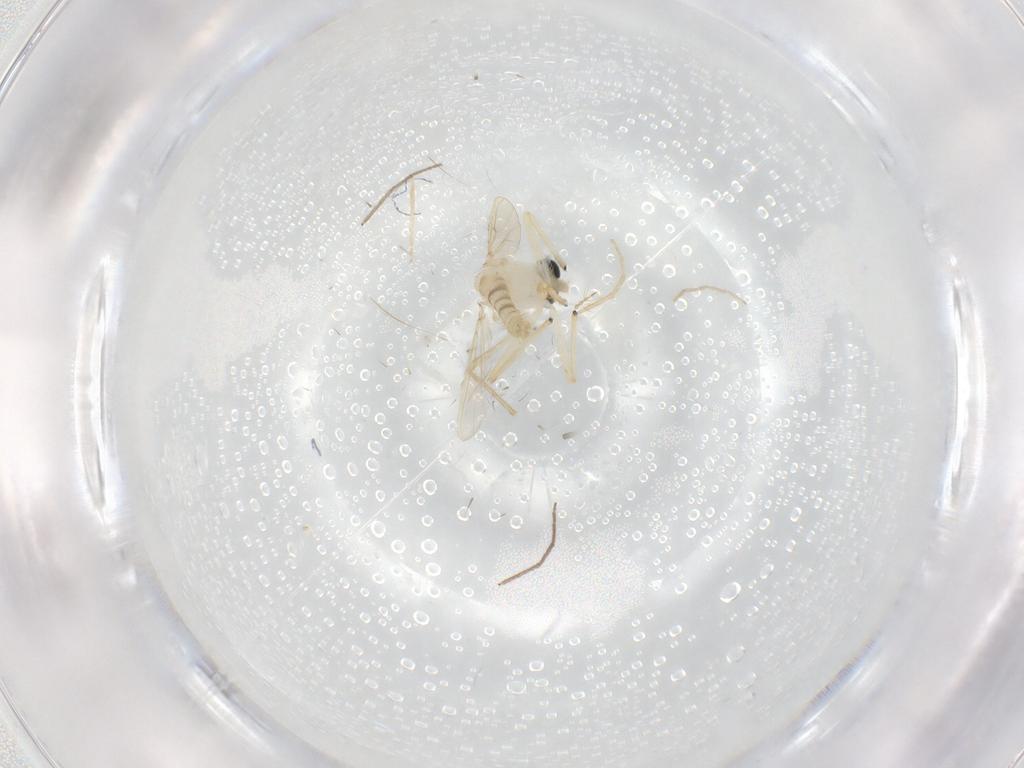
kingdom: Animalia
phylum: Arthropoda
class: Insecta
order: Diptera
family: Chironomidae
